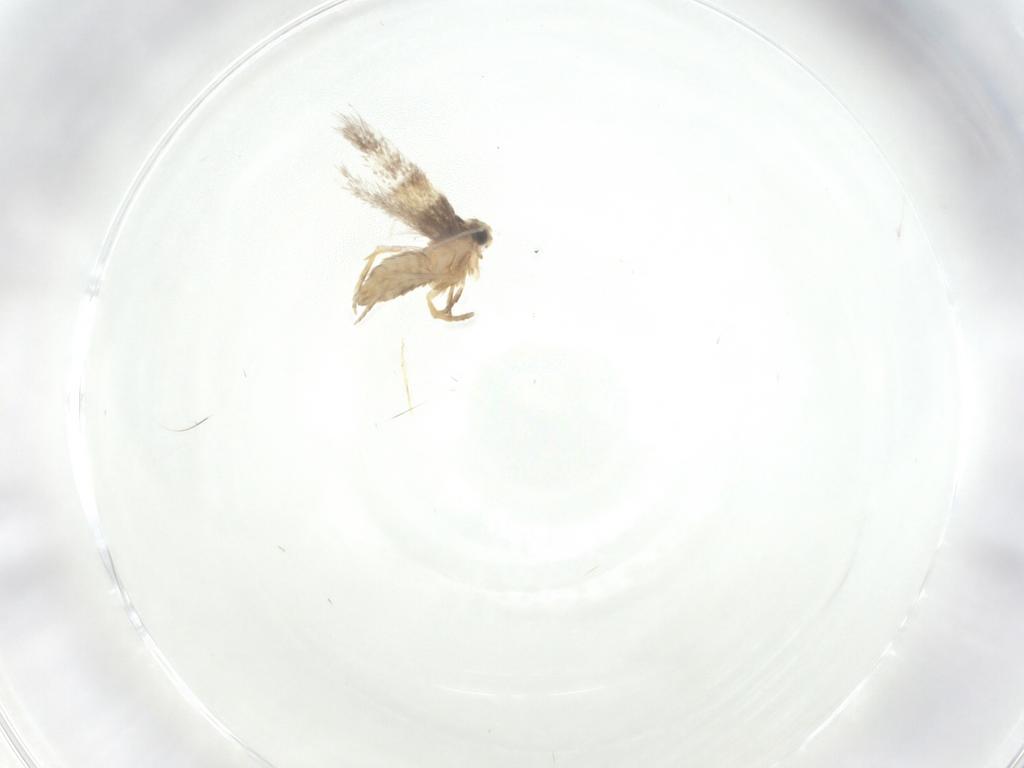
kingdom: Animalia
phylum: Arthropoda
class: Insecta
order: Lepidoptera
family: Nepticulidae
